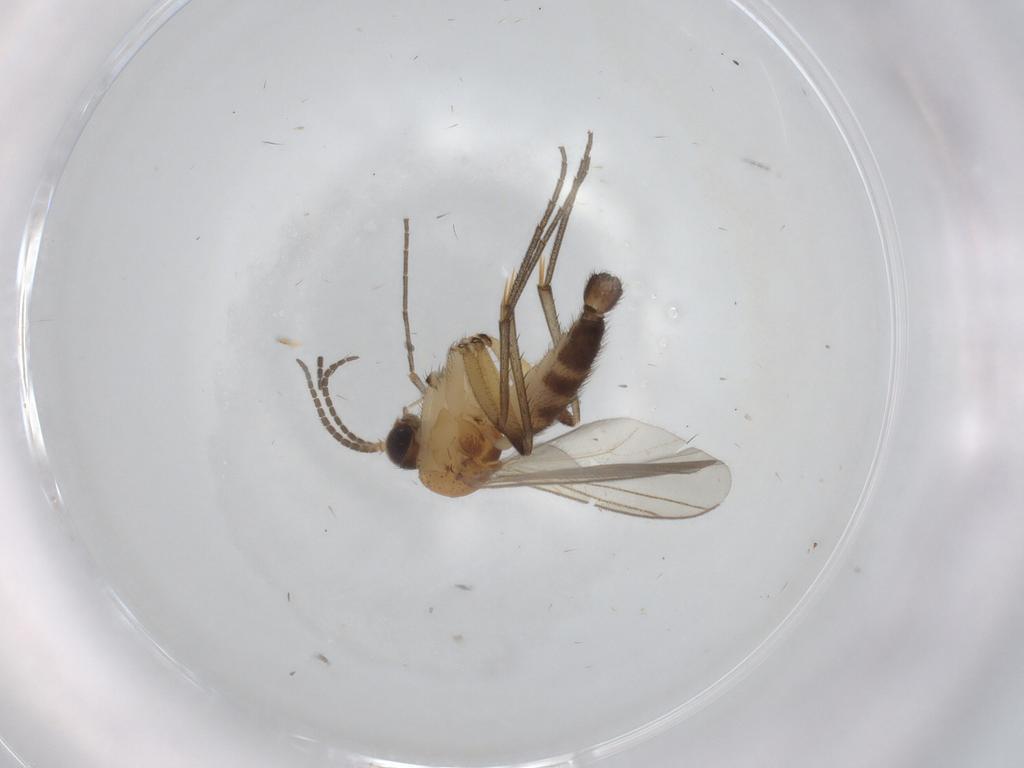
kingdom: Animalia
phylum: Arthropoda
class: Insecta
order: Diptera
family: Mycetophilidae
